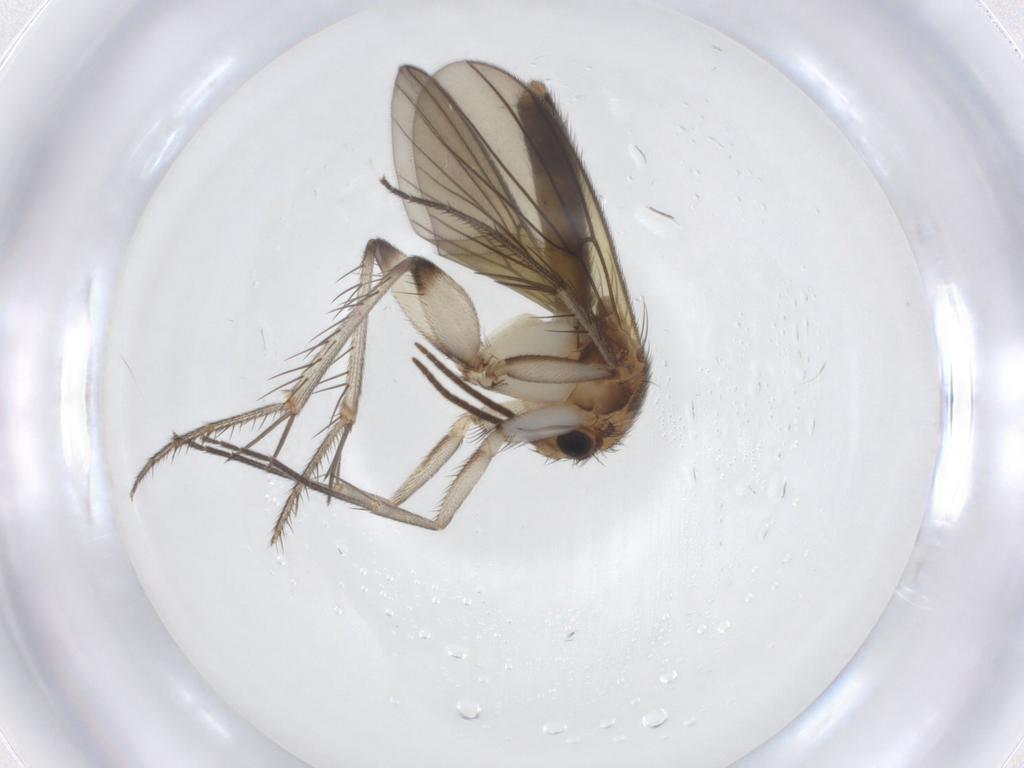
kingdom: Animalia
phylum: Arthropoda
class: Insecta
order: Diptera
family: Mycetophilidae
